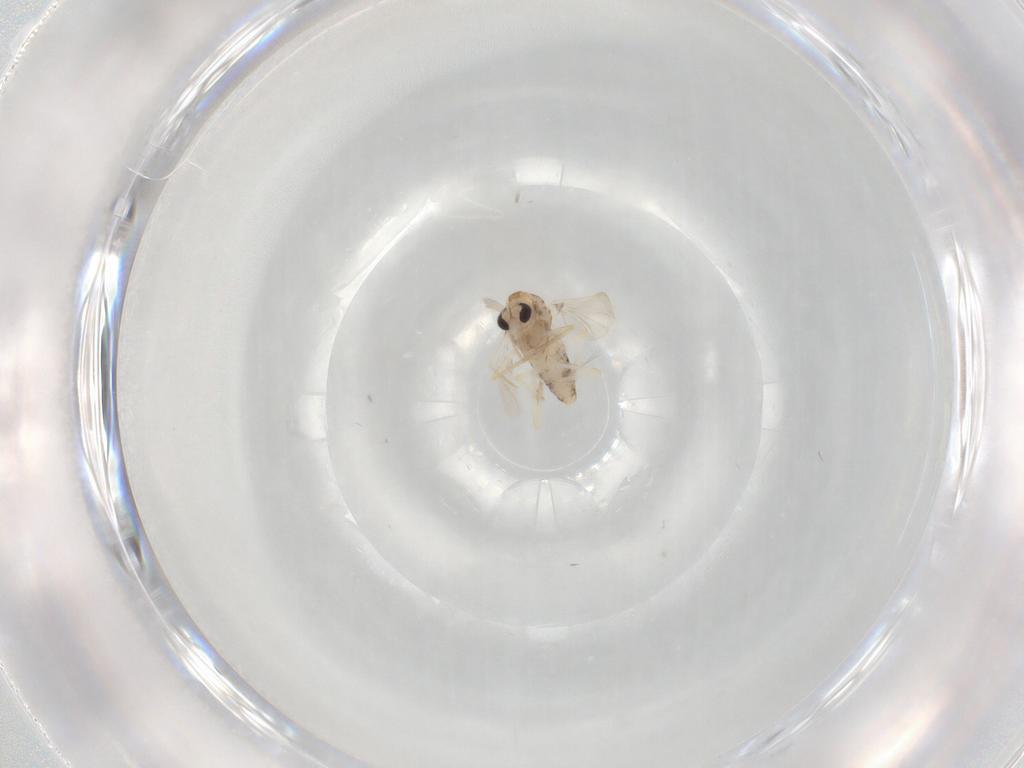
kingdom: Animalia
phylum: Arthropoda
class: Insecta
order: Diptera
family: Chironomidae
